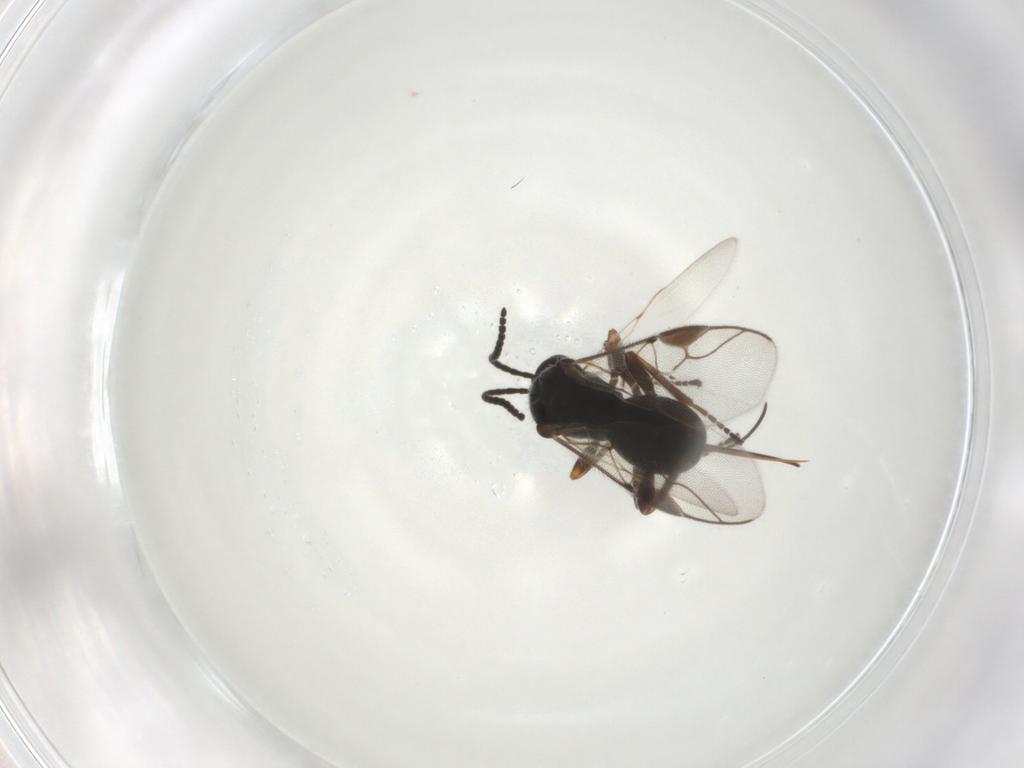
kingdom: Animalia
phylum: Arthropoda
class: Insecta
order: Hymenoptera
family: Braconidae
